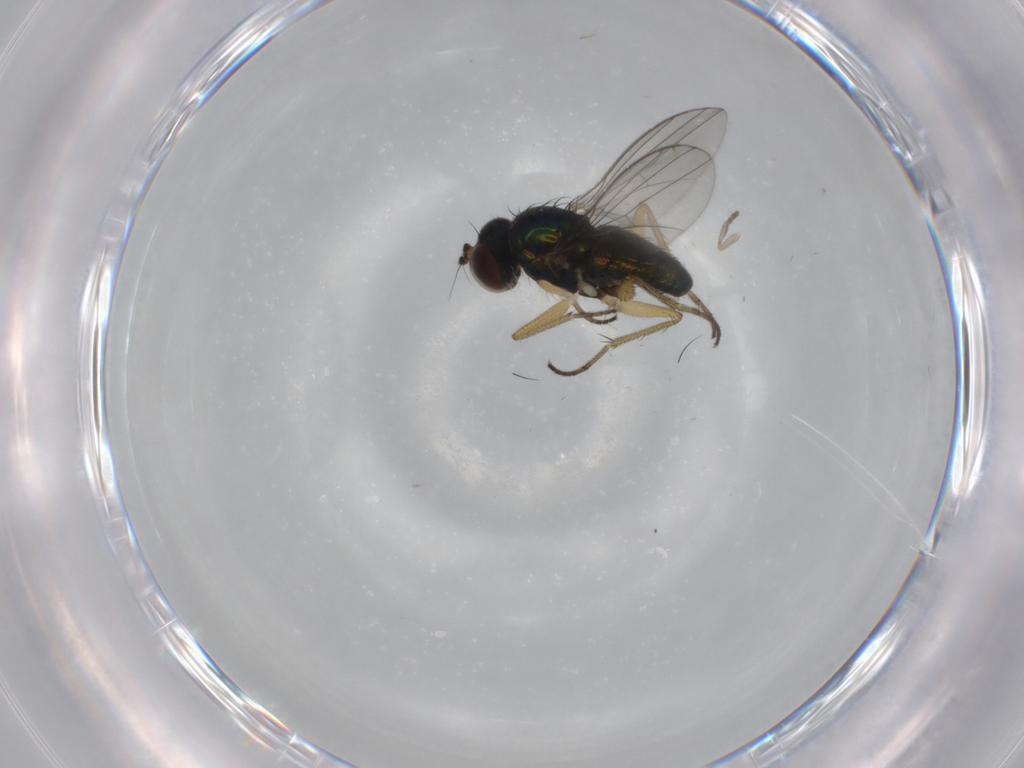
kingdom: Animalia
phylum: Arthropoda
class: Insecta
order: Diptera
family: Psychodidae
